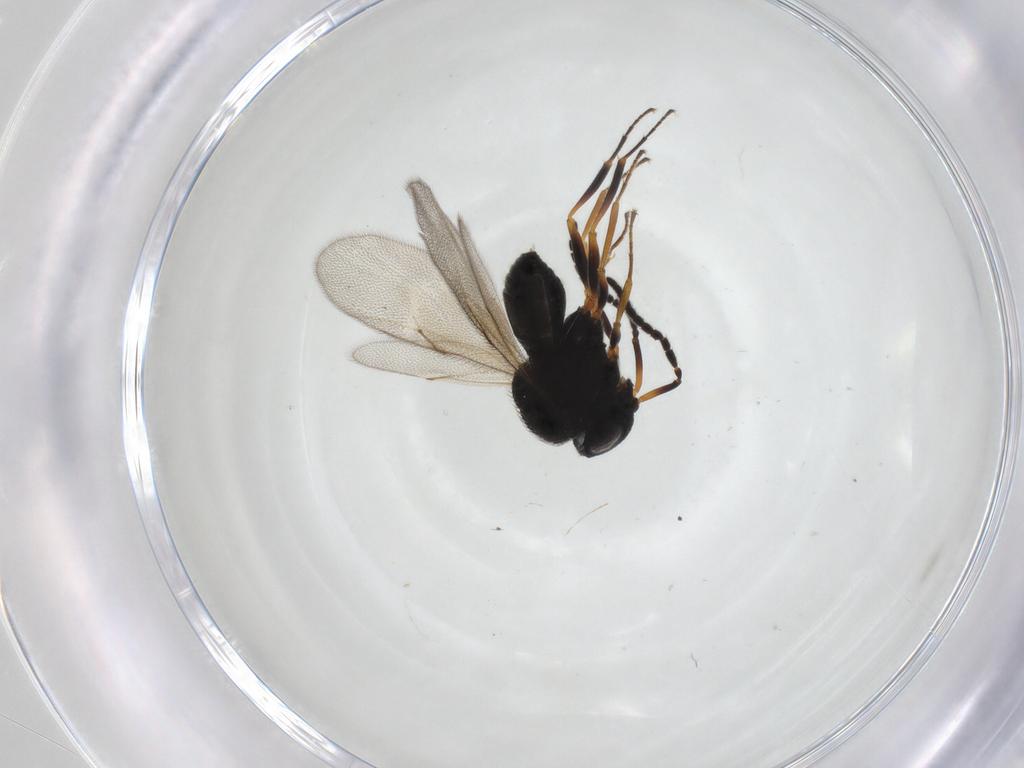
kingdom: Animalia
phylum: Arthropoda
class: Insecta
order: Hymenoptera
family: Scelionidae
